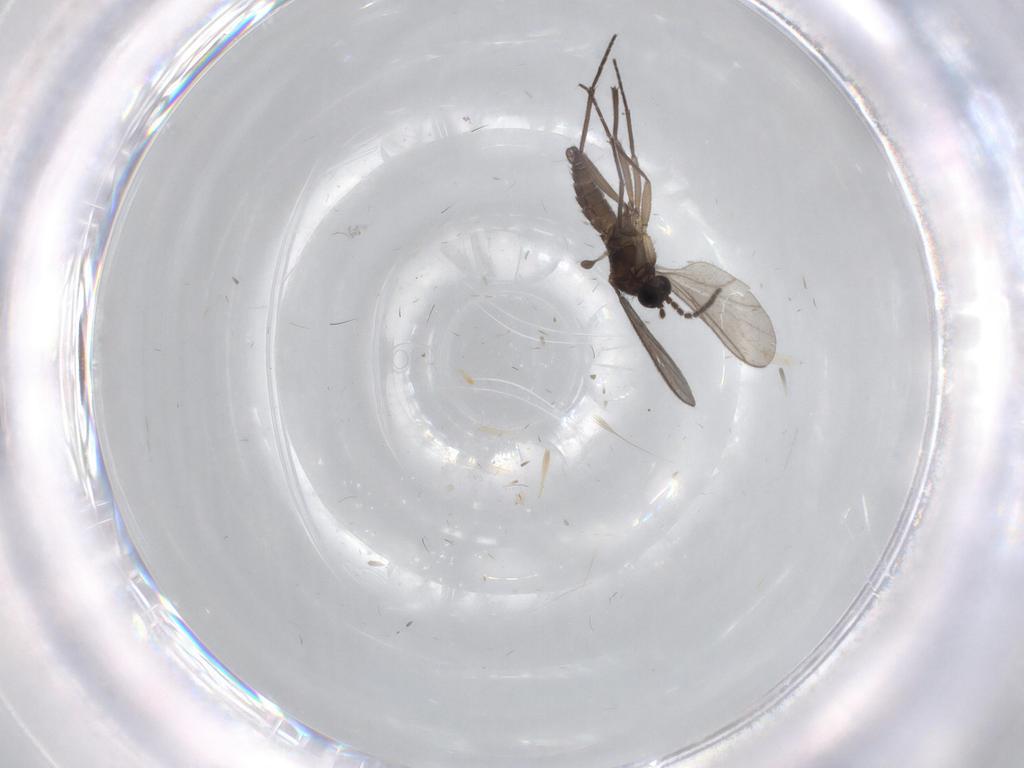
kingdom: Animalia
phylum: Arthropoda
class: Insecta
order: Diptera
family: Chironomidae
